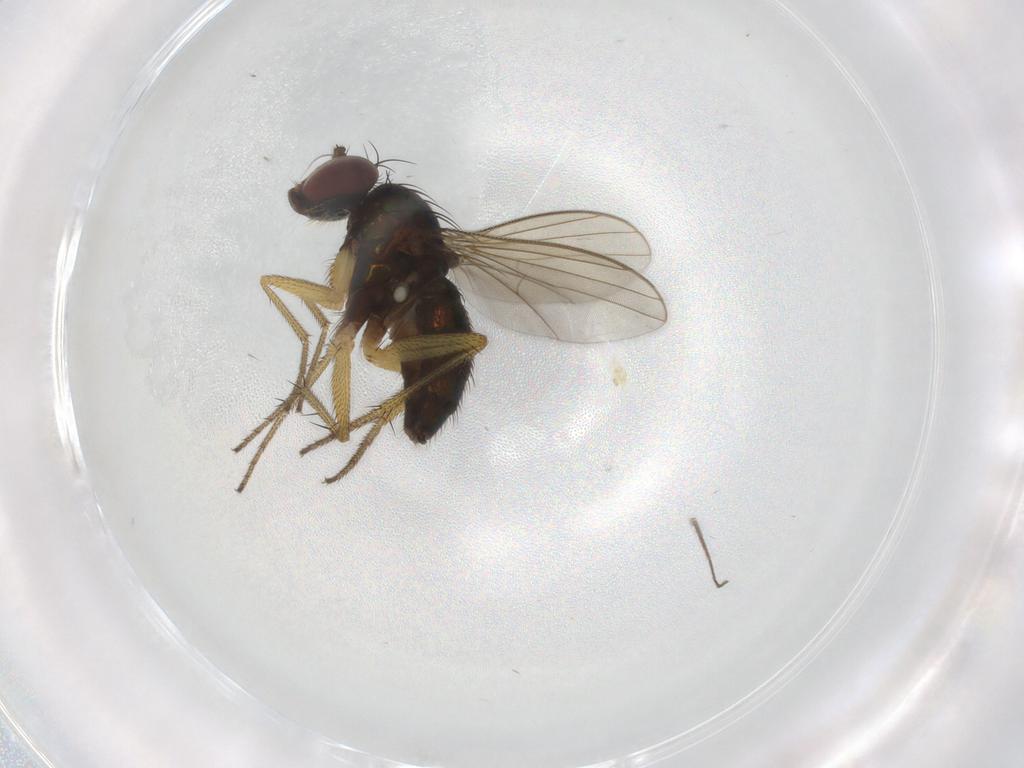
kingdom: Animalia
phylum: Arthropoda
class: Insecta
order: Diptera
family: Dolichopodidae
